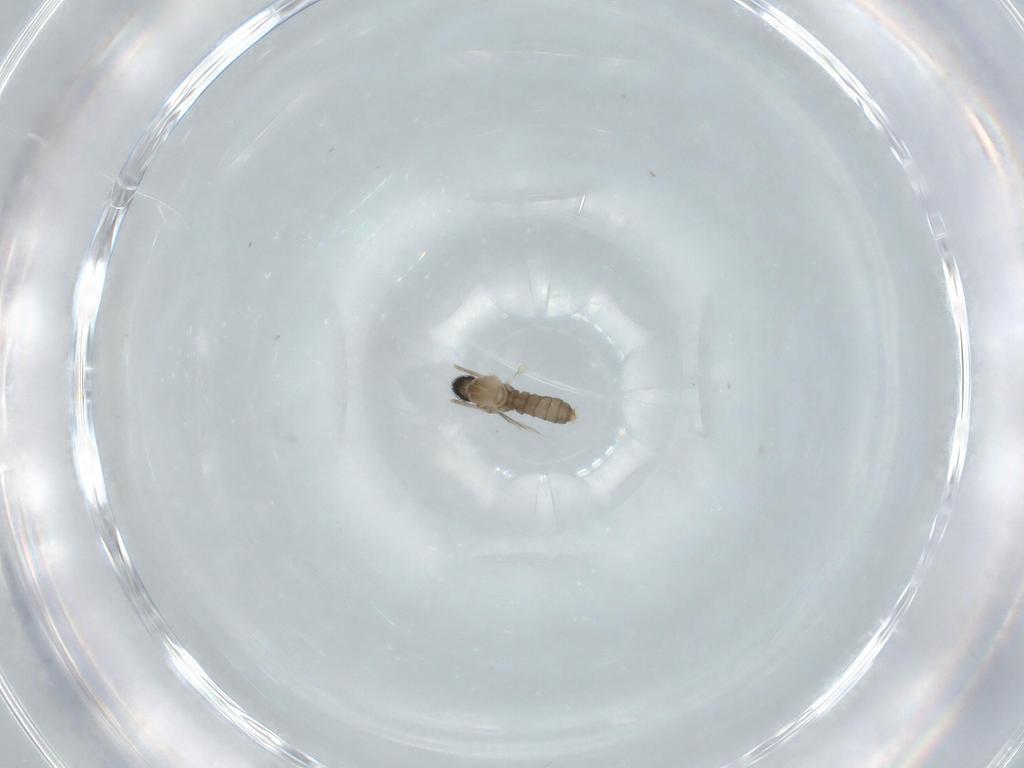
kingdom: Animalia
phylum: Arthropoda
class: Insecta
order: Diptera
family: Cecidomyiidae
